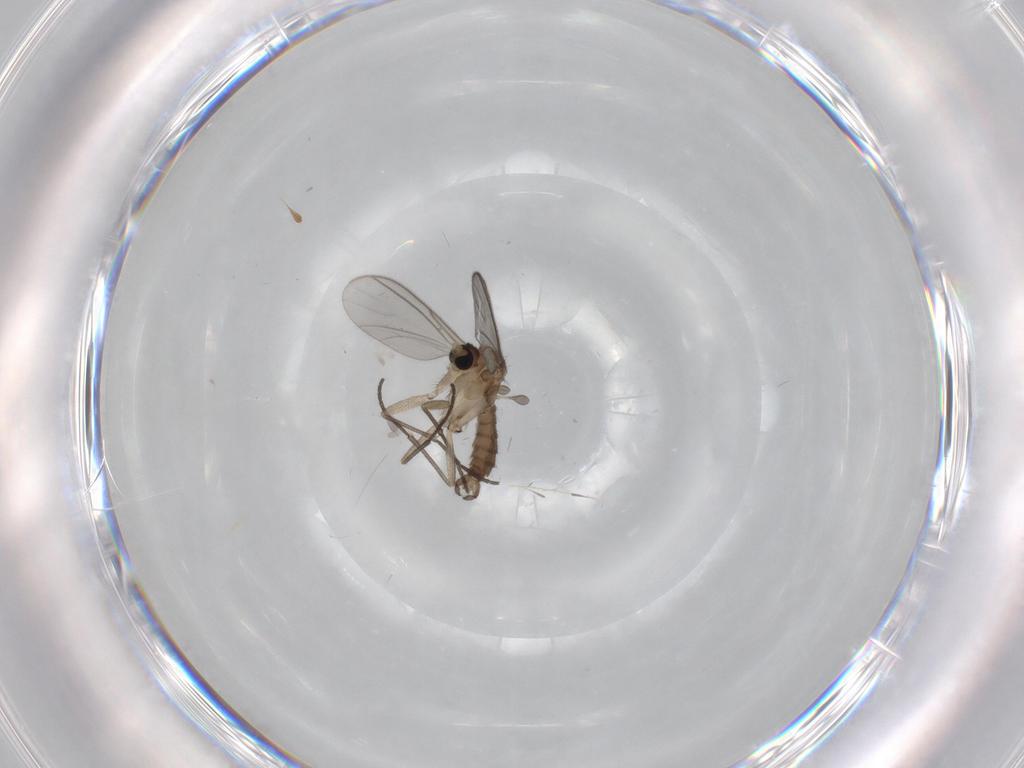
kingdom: Animalia
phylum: Arthropoda
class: Insecta
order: Diptera
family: Sciaridae
